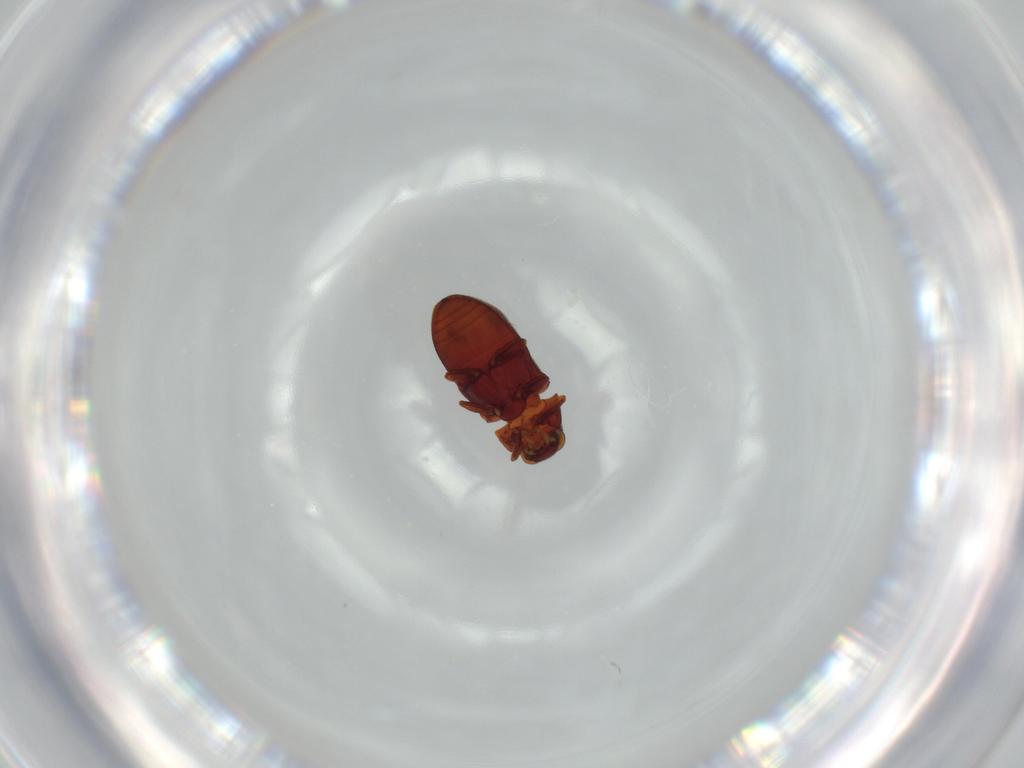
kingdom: Animalia
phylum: Arthropoda
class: Insecta
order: Coleoptera
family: Ptinidae
